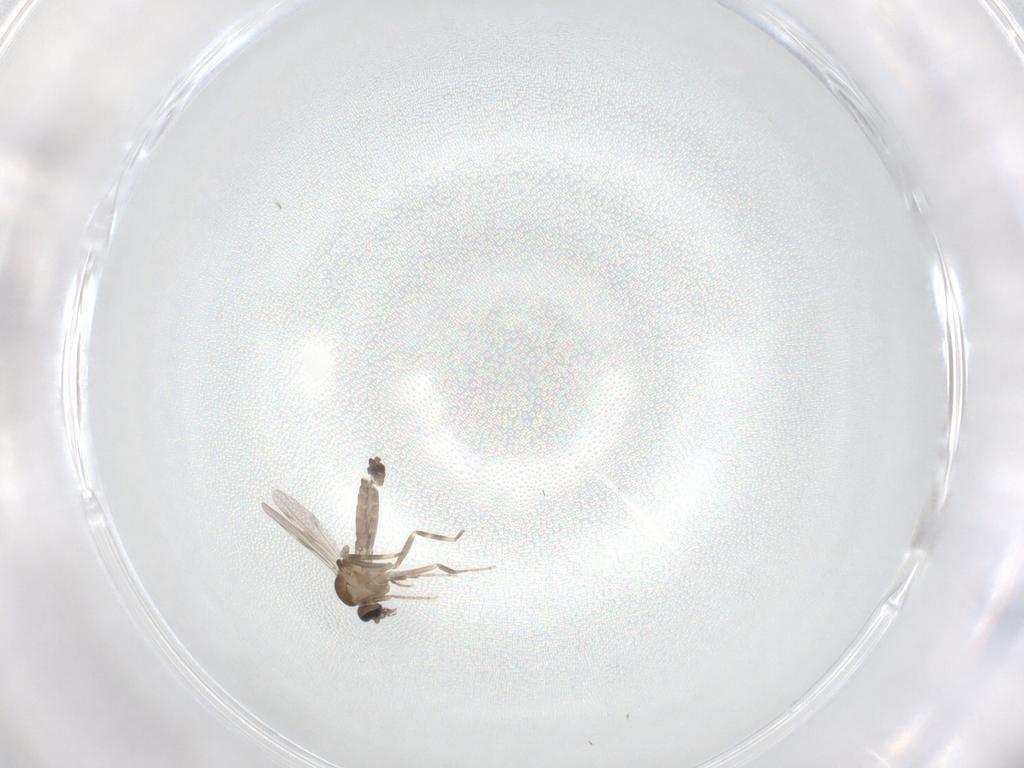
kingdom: Animalia
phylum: Arthropoda
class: Insecta
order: Diptera
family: Ceratopogonidae
